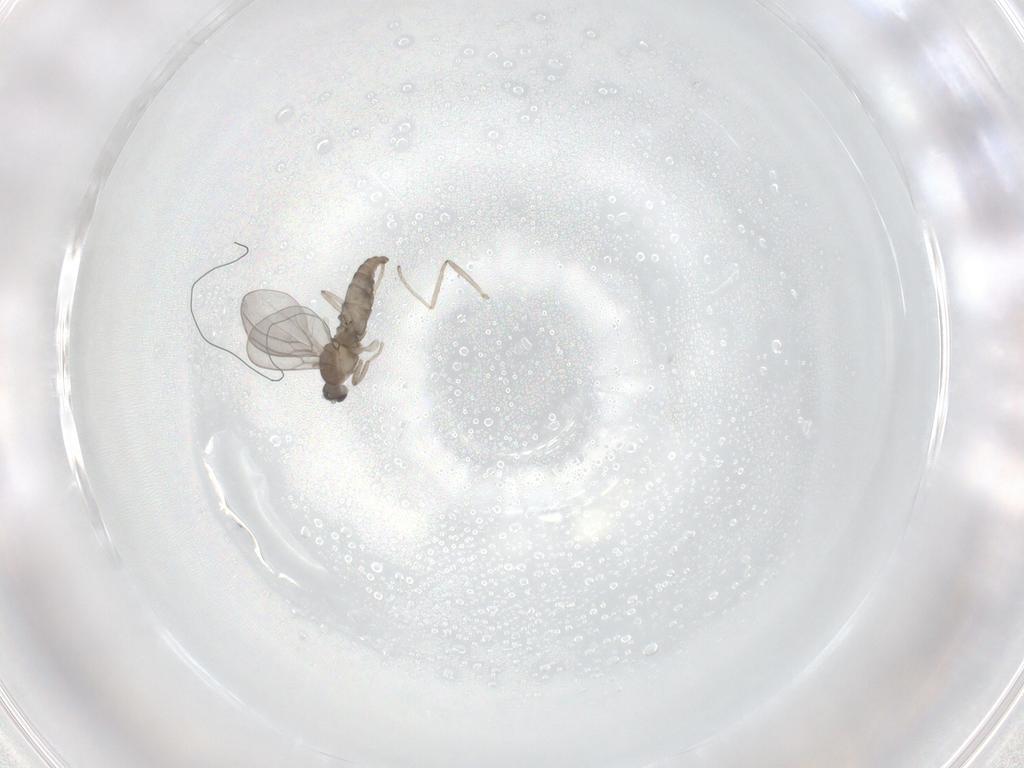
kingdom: Animalia
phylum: Arthropoda
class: Insecta
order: Diptera
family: Cecidomyiidae
